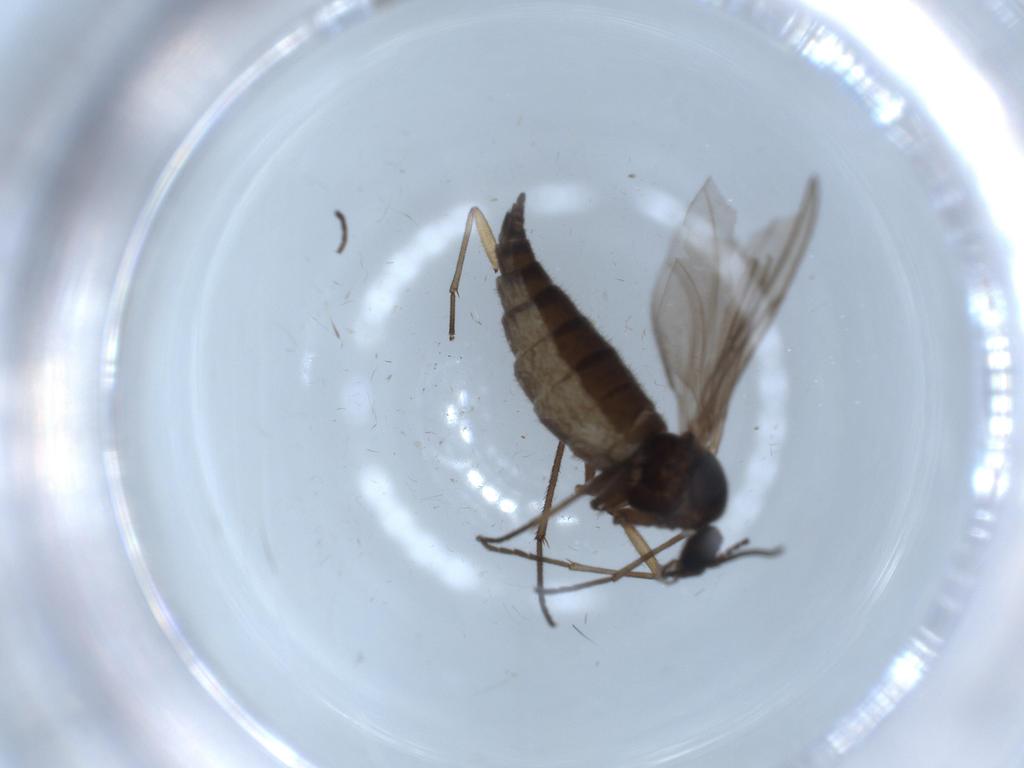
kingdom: Animalia
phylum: Arthropoda
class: Insecta
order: Diptera
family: Sciaridae
